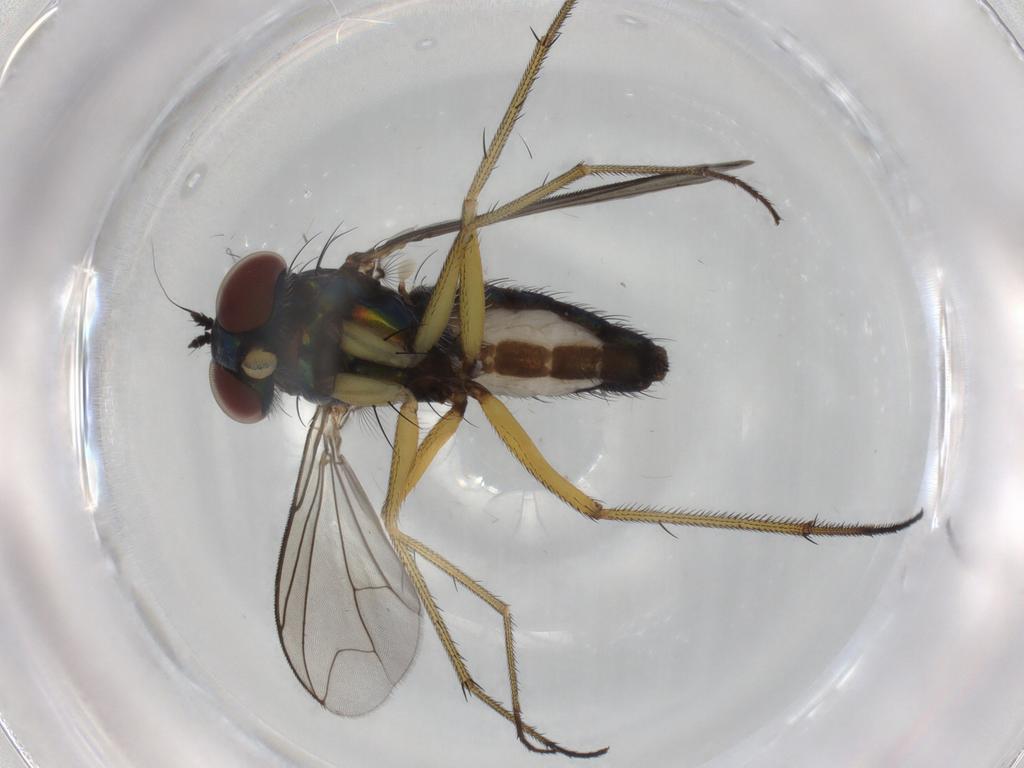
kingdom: Animalia
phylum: Arthropoda
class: Insecta
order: Diptera
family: Dolichopodidae
